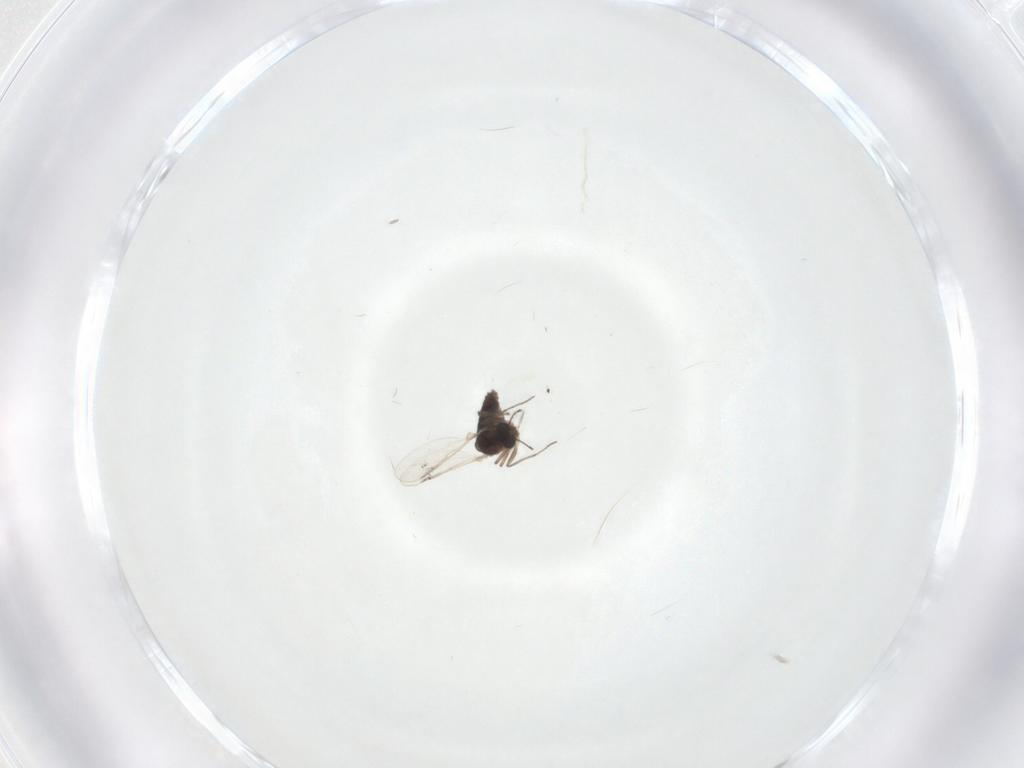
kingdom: Animalia
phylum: Arthropoda
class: Insecta
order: Diptera
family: Chironomidae
